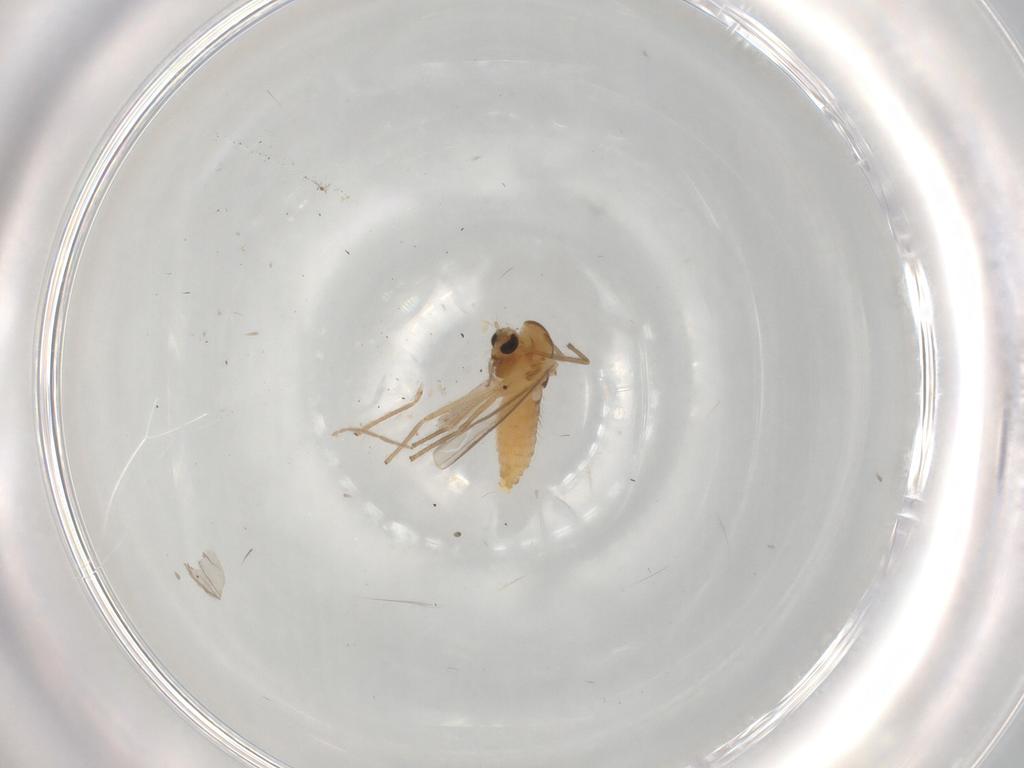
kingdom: Animalia
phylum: Arthropoda
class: Insecta
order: Diptera
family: Chironomidae
